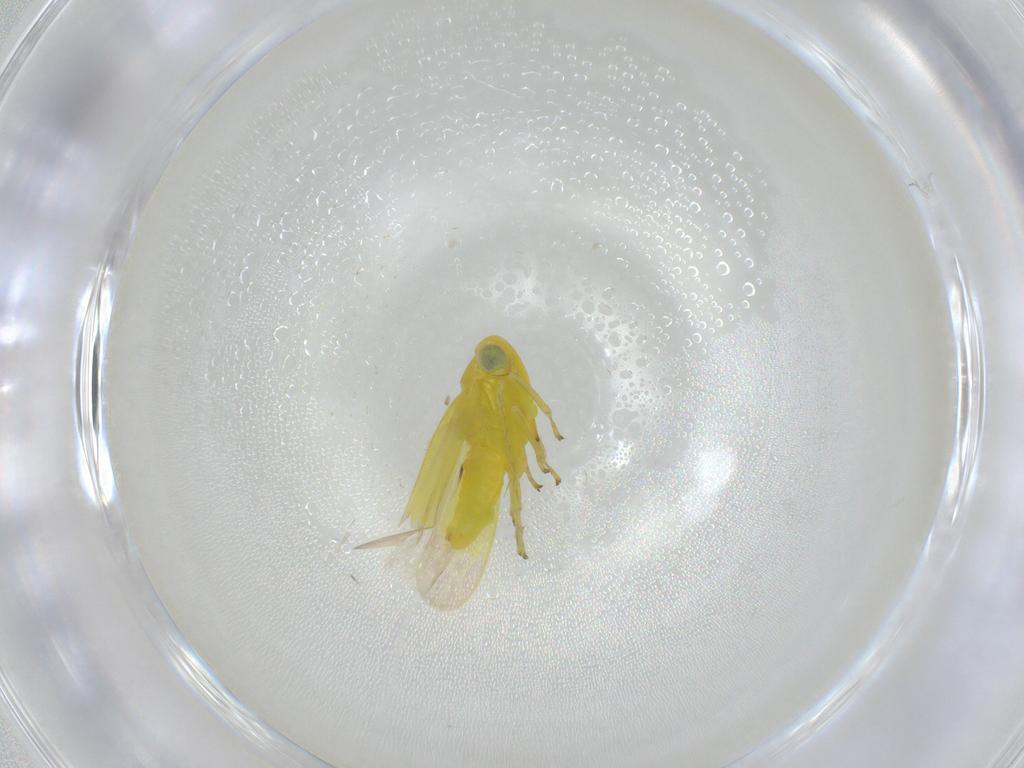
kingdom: Animalia
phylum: Arthropoda
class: Insecta
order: Hemiptera
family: Cicadellidae
